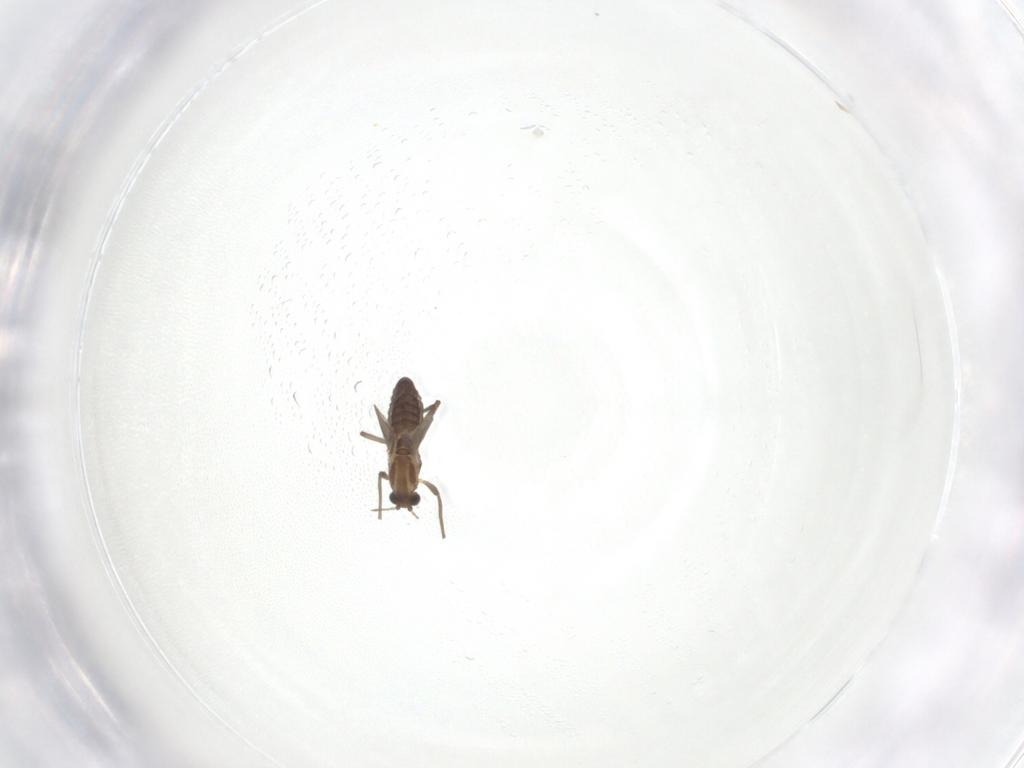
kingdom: Animalia
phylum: Arthropoda
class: Insecta
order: Diptera
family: Chironomidae
